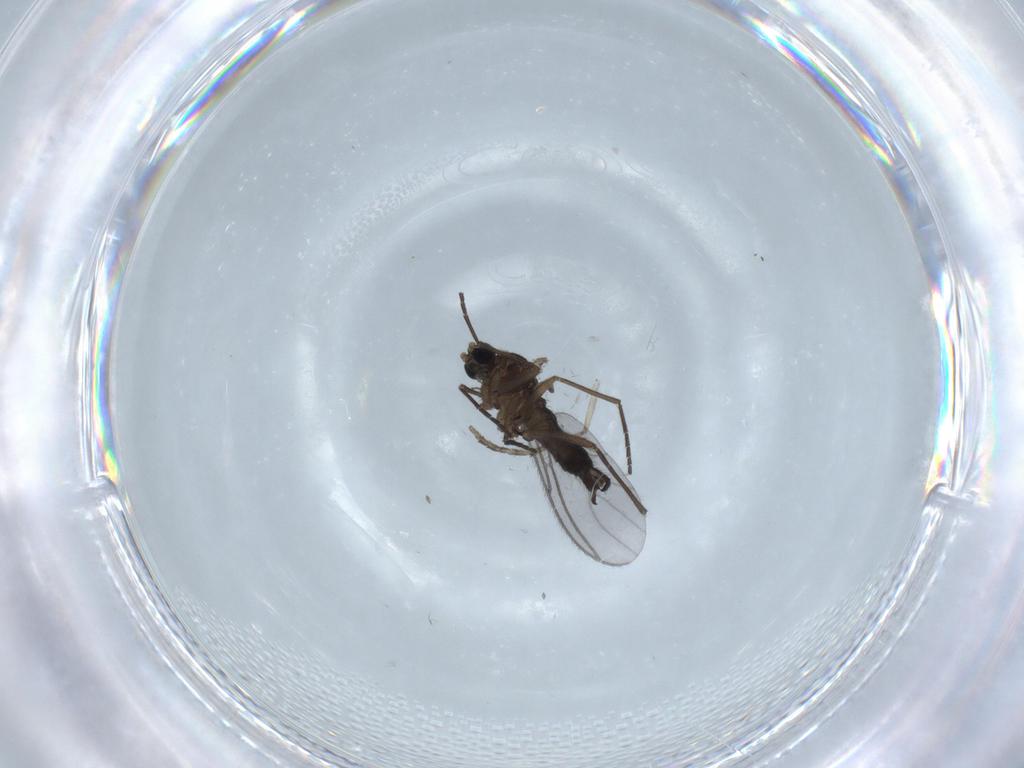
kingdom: Animalia
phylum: Arthropoda
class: Insecta
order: Diptera
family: Sciaridae
